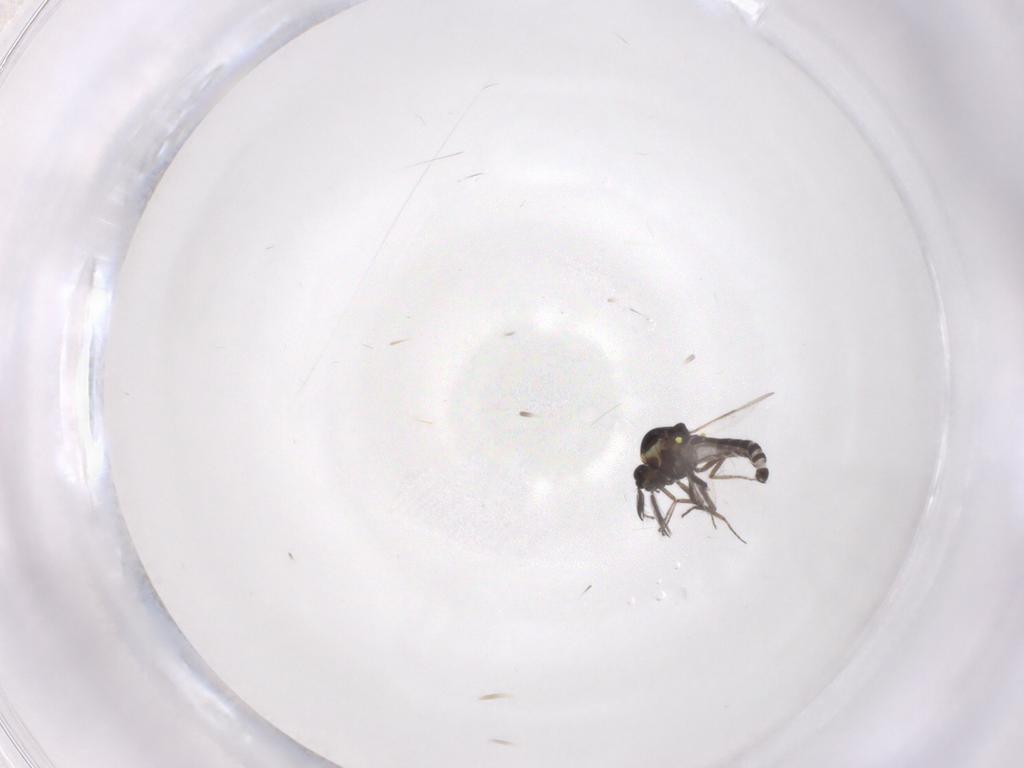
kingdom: Animalia
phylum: Arthropoda
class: Insecta
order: Diptera
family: Ceratopogonidae
